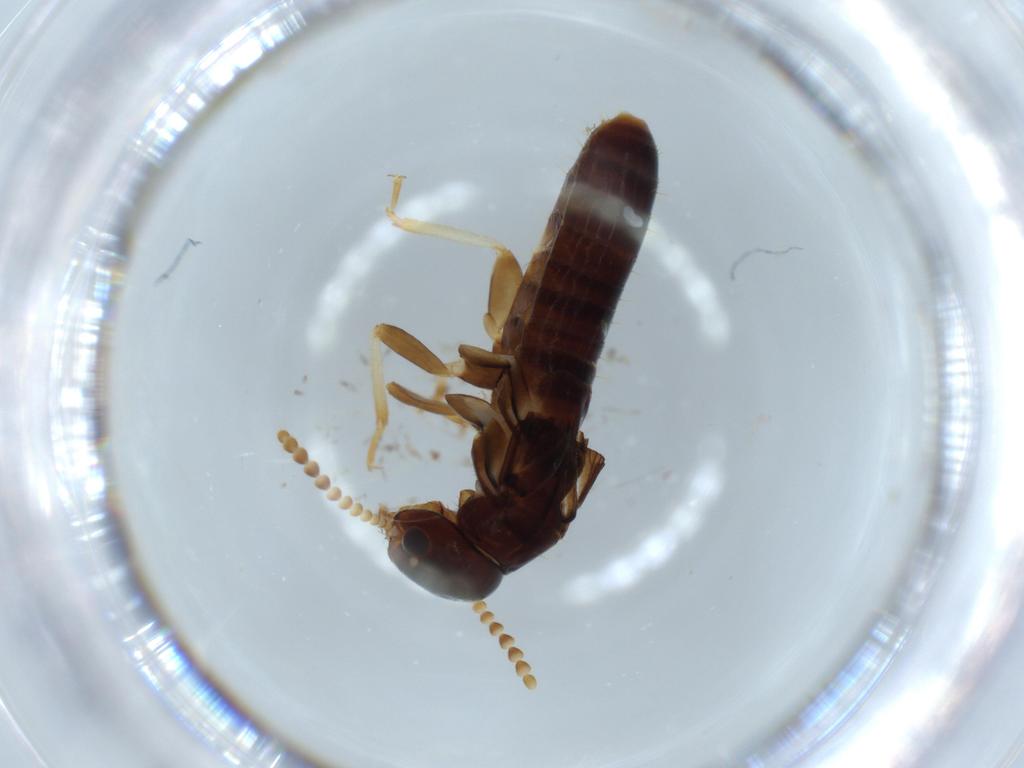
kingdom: Animalia
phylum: Arthropoda
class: Insecta
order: Coleoptera
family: Bostrichidae
